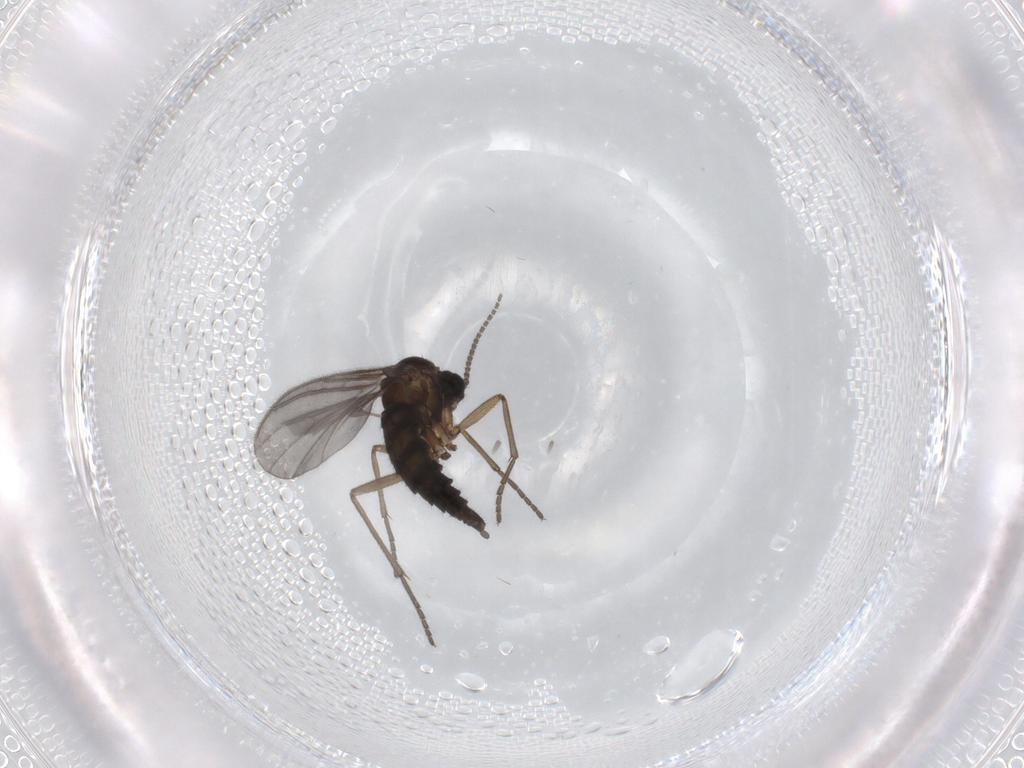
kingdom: Animalia
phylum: Arthropoda
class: Insecta
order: Diptera
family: Sciaridae
